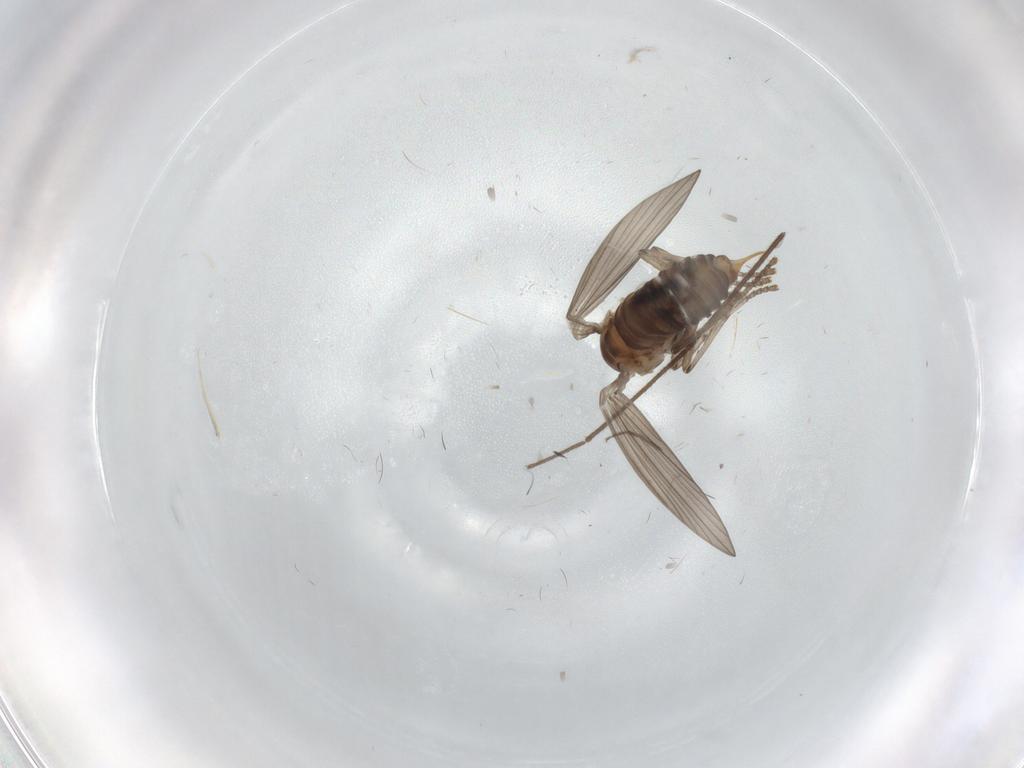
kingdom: Animalia
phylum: Arthropoda
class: Insecta
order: Diptera
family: Psychodidae
